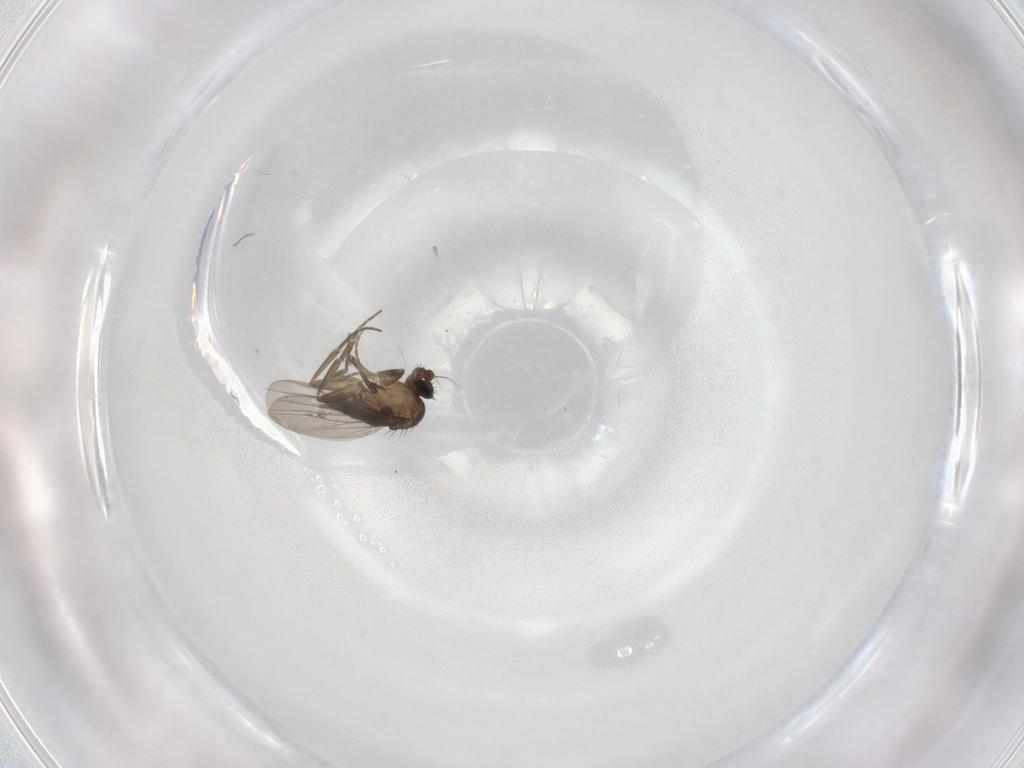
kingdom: Animalia
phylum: Arthropoda
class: Insecta
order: Diptera
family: Phoridae
